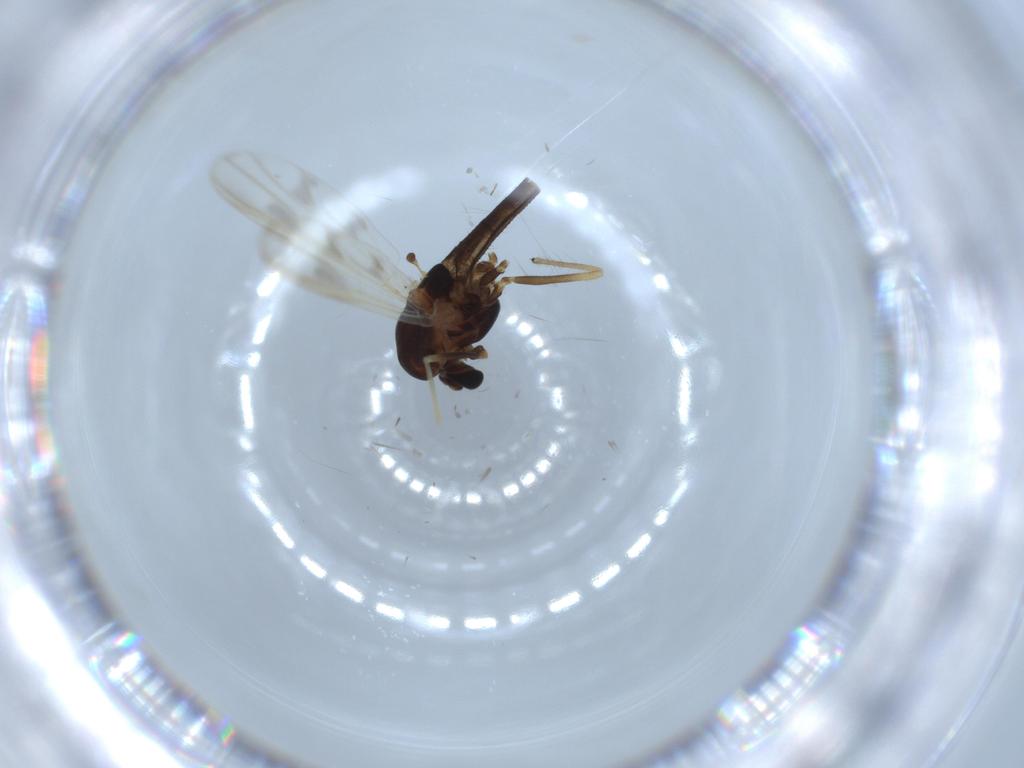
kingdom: Animalia
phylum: Arthropoda
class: Insecta
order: Diptera
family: Chironomidae
